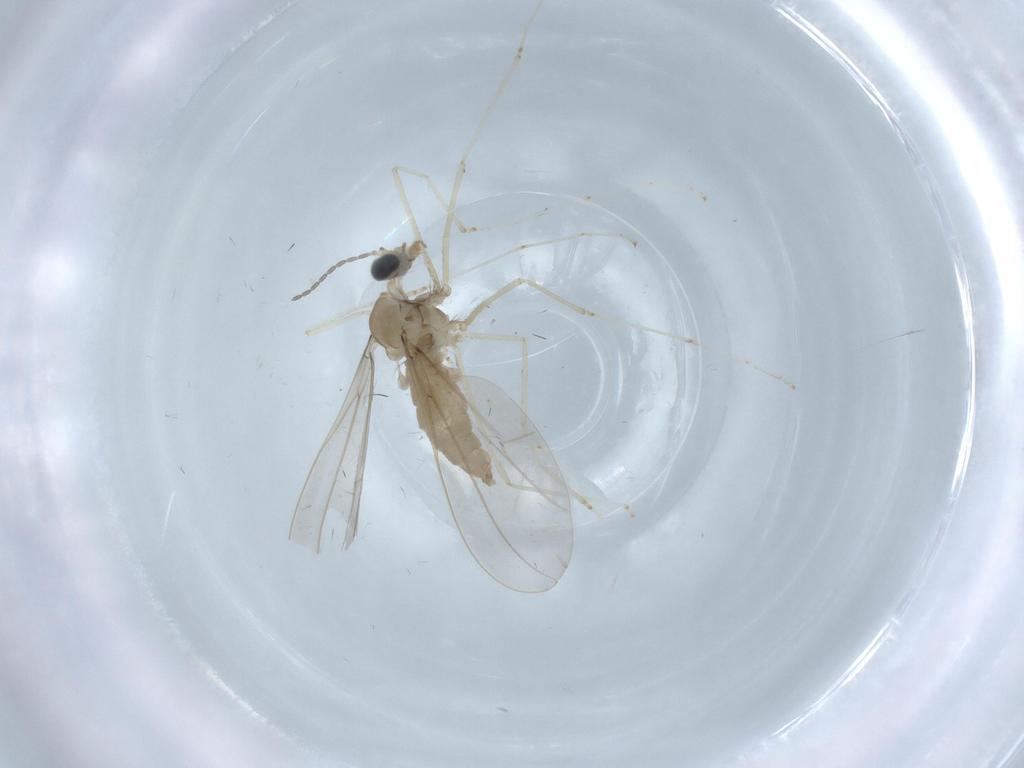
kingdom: Animalia
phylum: Arthropoda
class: Insecta
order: Diptera
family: Cecidomyiidae
